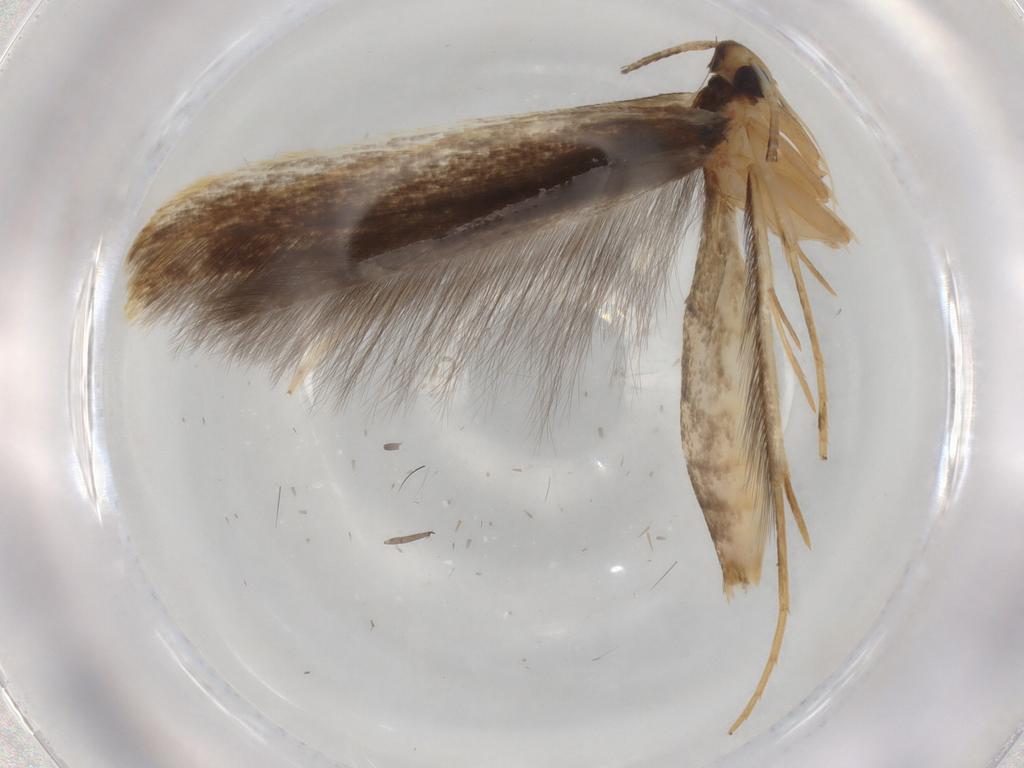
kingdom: Animalia
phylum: Arthropoda
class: Insecta
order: Lepidoptera
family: Pterolonchidae
